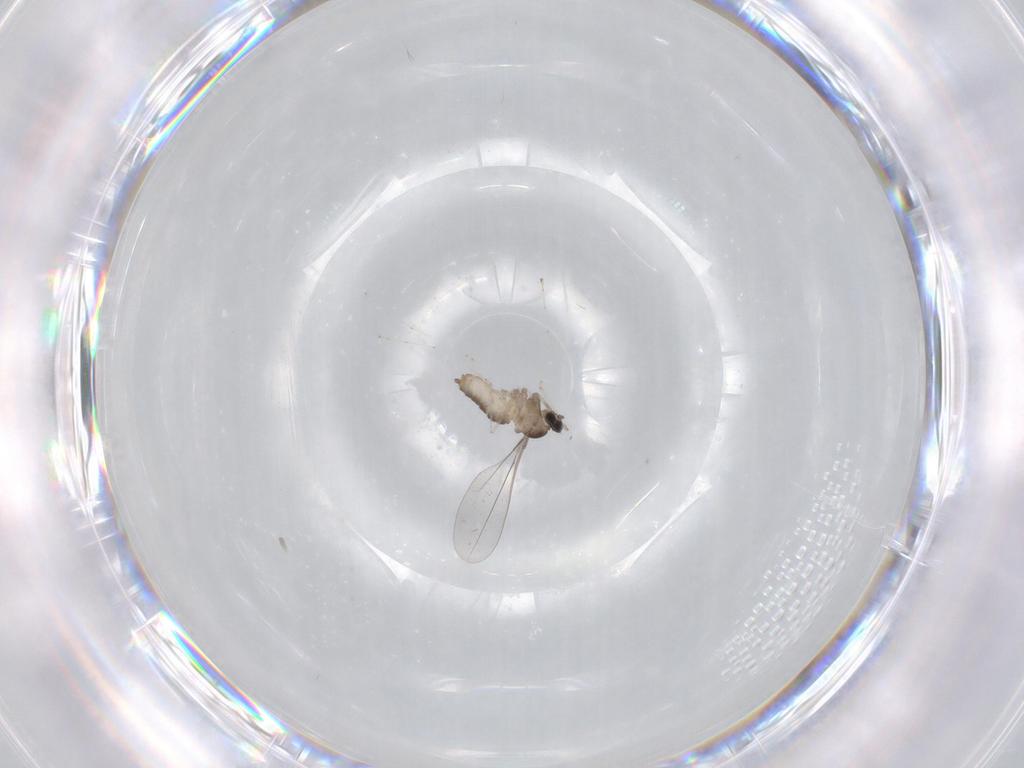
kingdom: Animalia
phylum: Arthropoda
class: Insecta
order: Diptera
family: Cecidomyiidae
